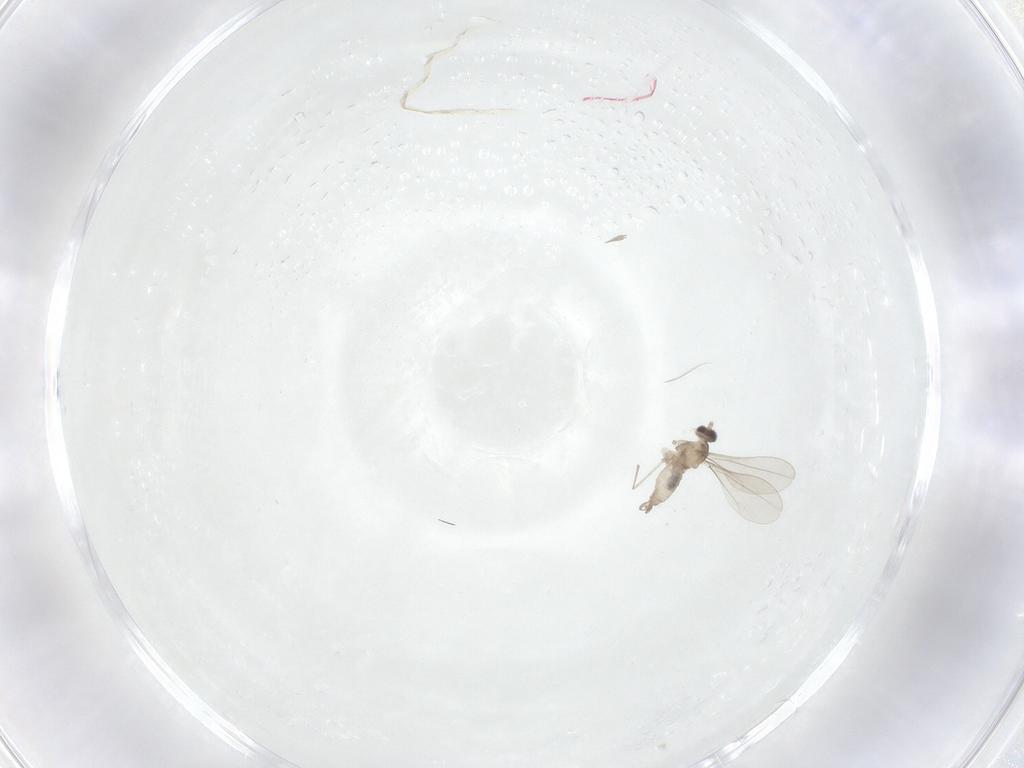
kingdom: Animalia
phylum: Arthropoda
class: Insecta
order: Diptera
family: Cecidomyiidae
